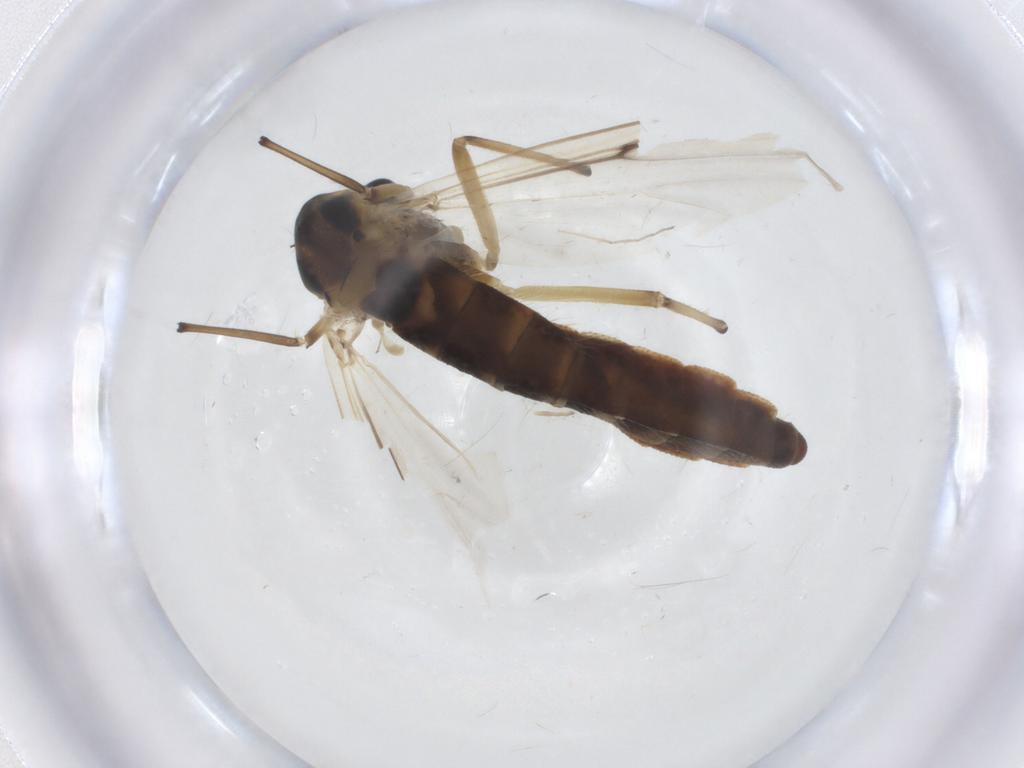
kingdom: Animalia
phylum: Arthropoda
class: Insecta
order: Diptera
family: Chironomidae
